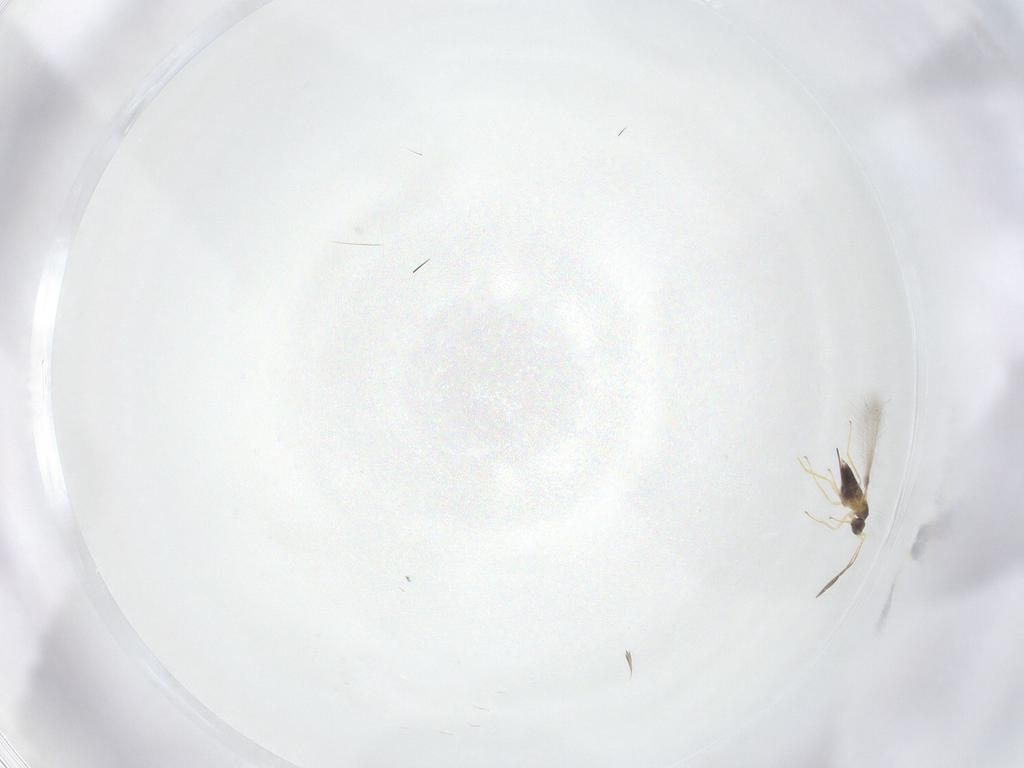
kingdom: Animalia
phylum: Arthropoda
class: Insecta
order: Hymenoptera
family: Mymaridae
